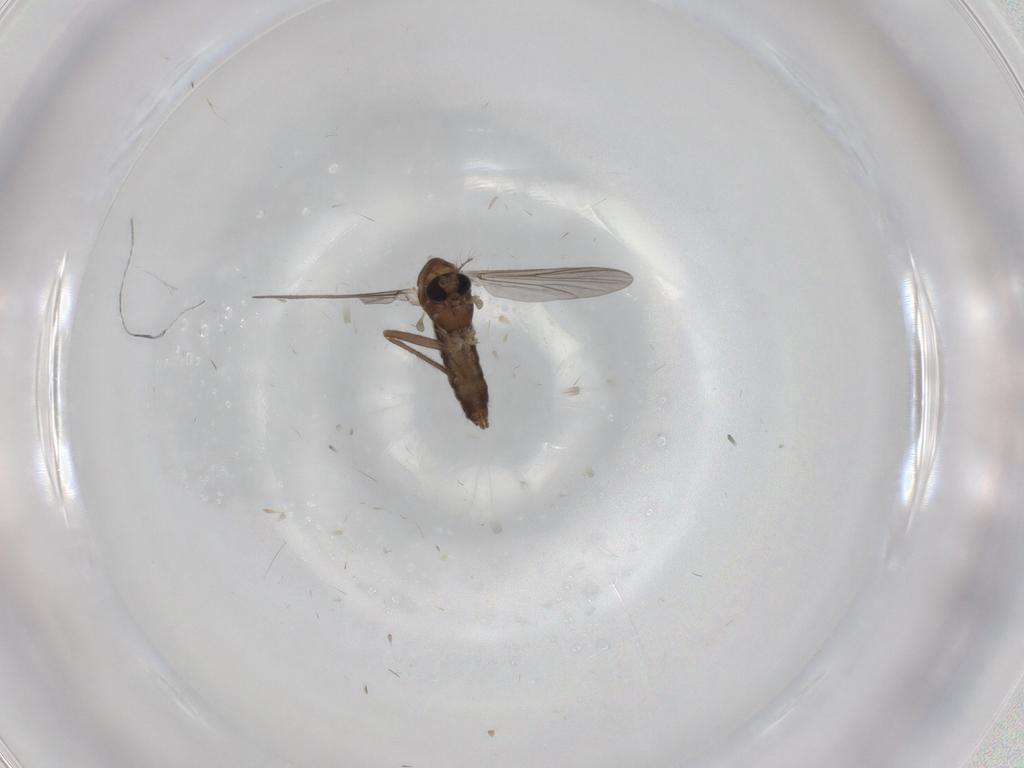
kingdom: Animalia
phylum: Arthropoda
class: Insecta
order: Diptera
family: Chironomidae
